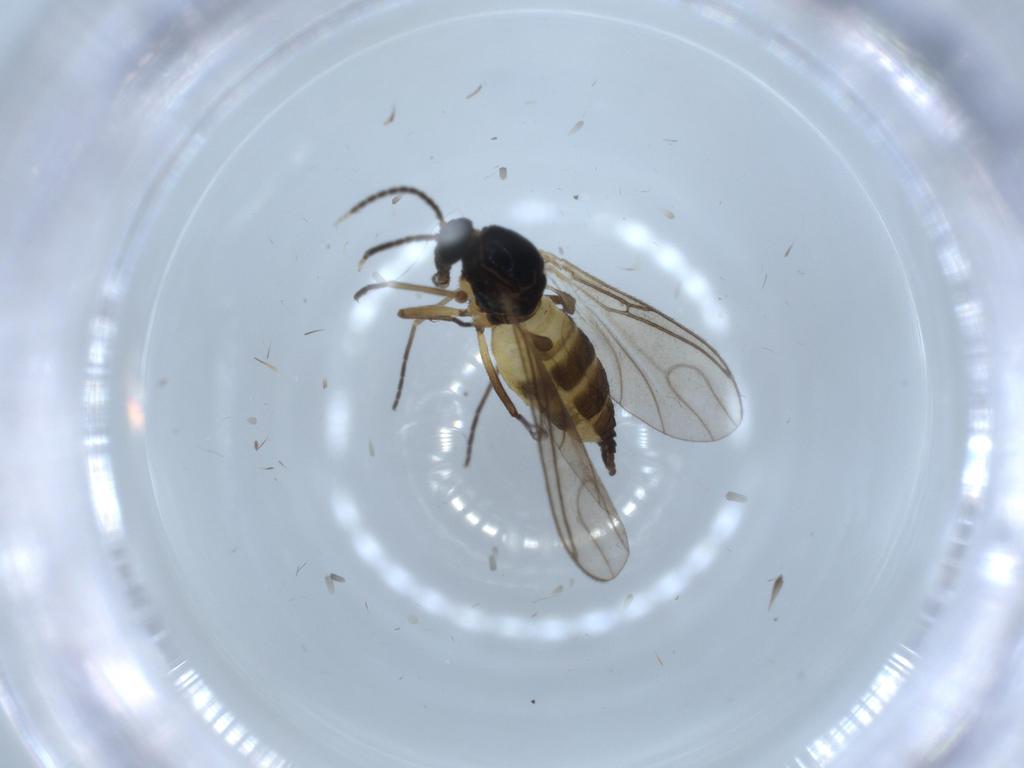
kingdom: Animalia
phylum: Arthropoda
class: Insecta
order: Diptera
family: Sciaridae
